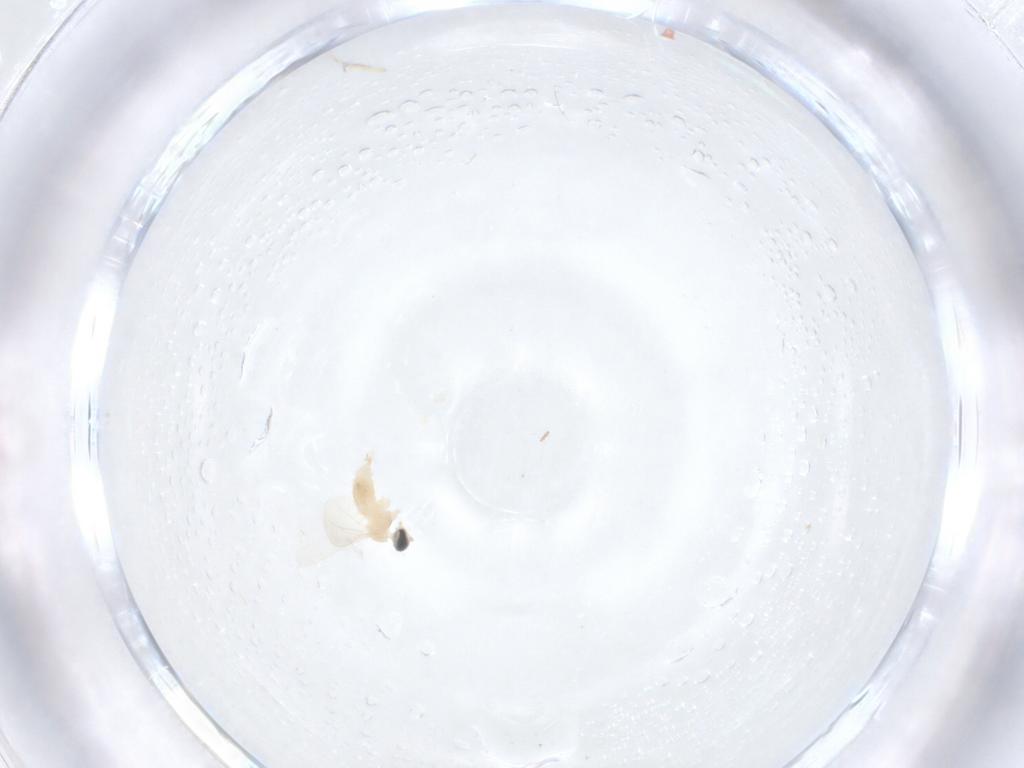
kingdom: Animalia
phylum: Arthropoda
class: Insecta
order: Diptera
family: Cecidomyiidae
